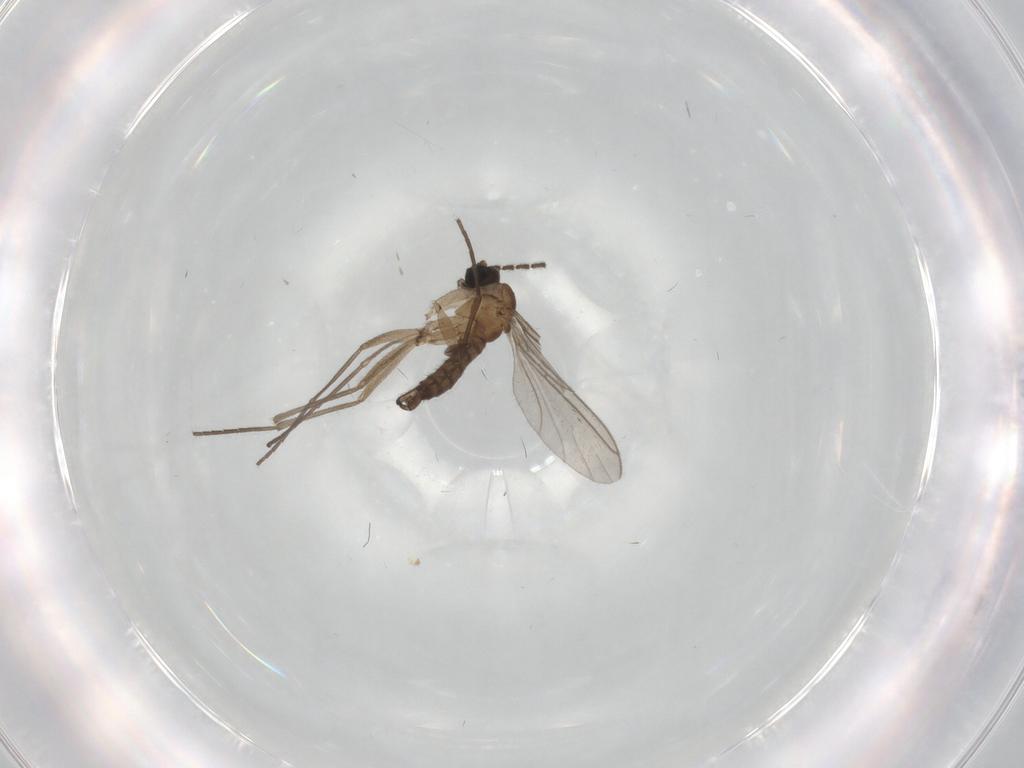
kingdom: Animalia
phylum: Arthropoda
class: Insecta
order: Diptera
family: Sciaridae
